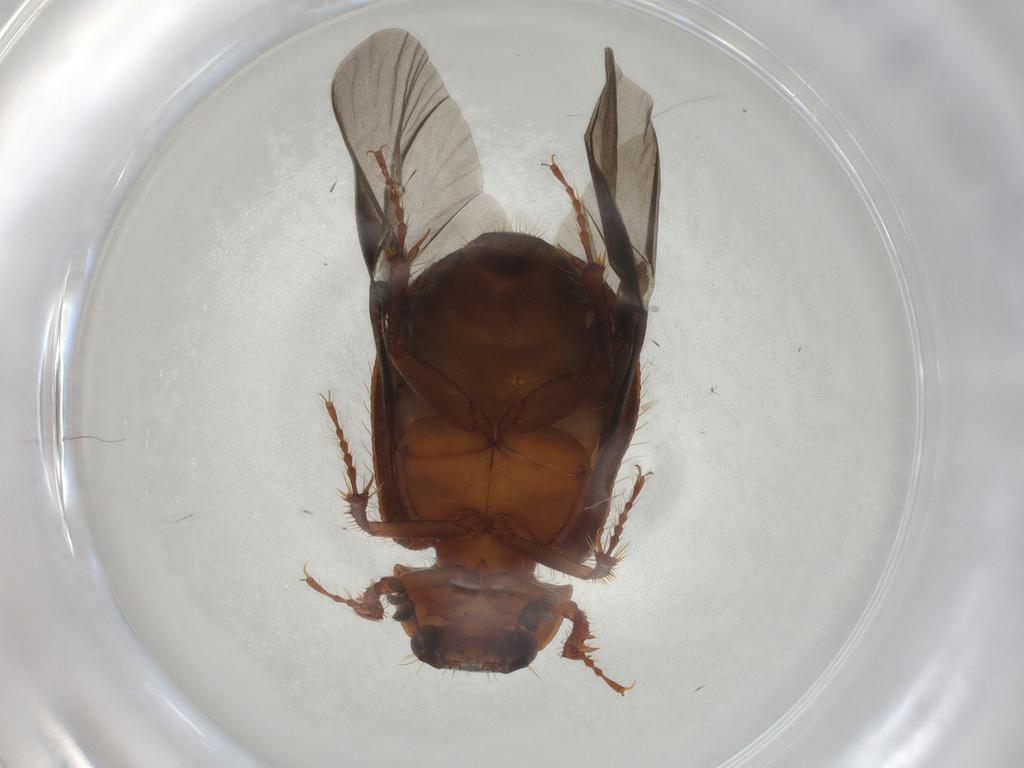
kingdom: Animalia
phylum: Arthropoda
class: Insecta
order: Coleoptera
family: Hybosoridae
